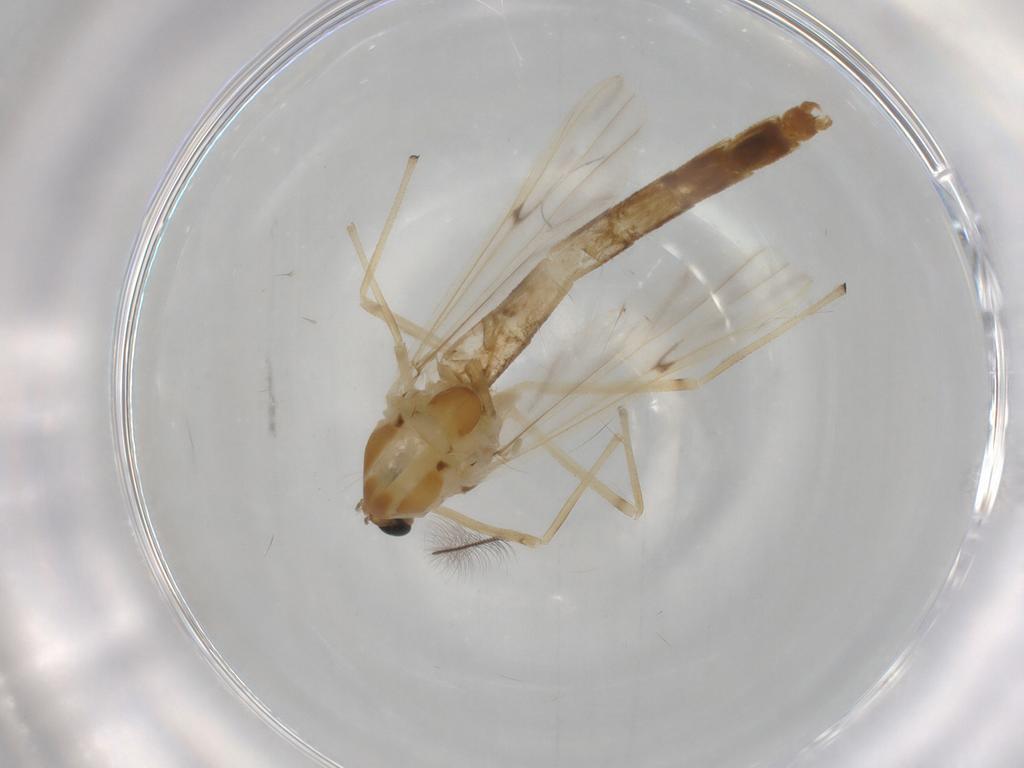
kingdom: Animalia
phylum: Arthropoda
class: Insecta
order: Diptera
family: Chironomidae
